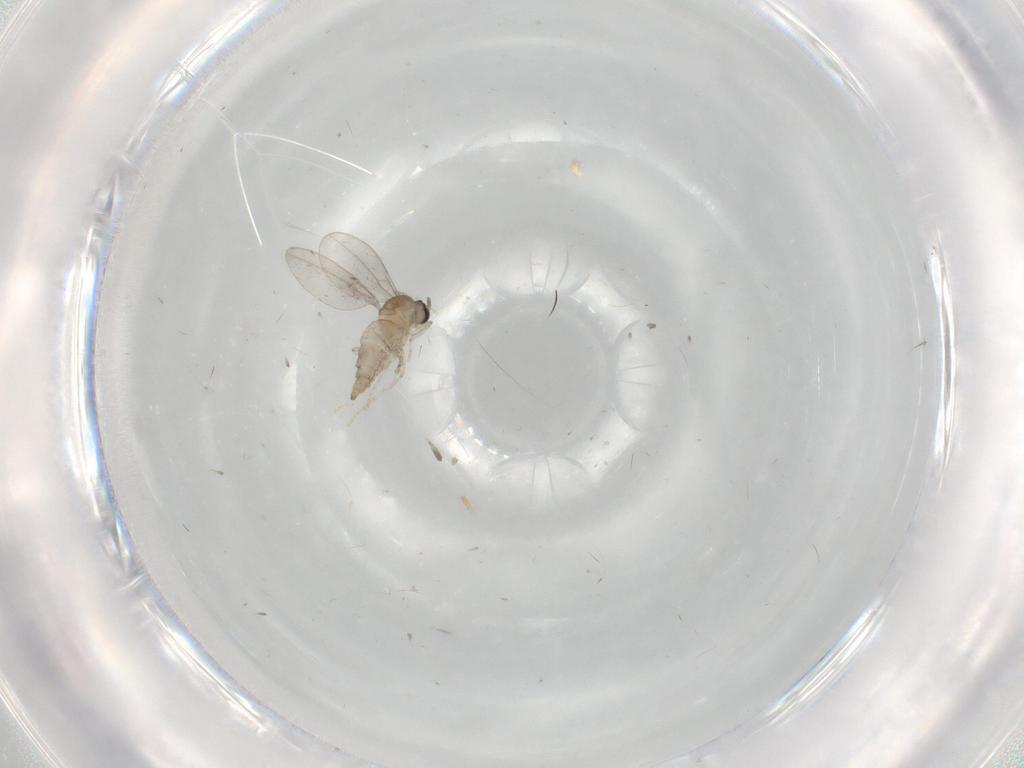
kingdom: Animalia
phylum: Arthropoda
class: Insecta
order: Diptera
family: Cecidomyiidae
